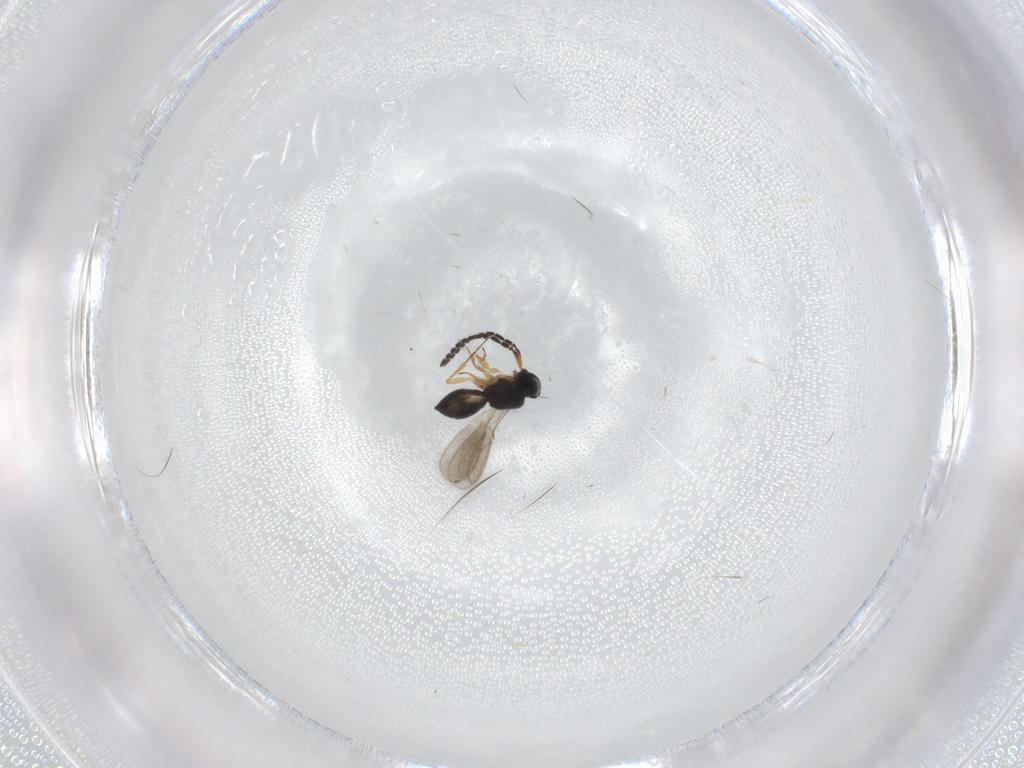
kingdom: Animalia
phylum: Arthropoda
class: Insecta
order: Hymenoptera
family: Scelionidae
